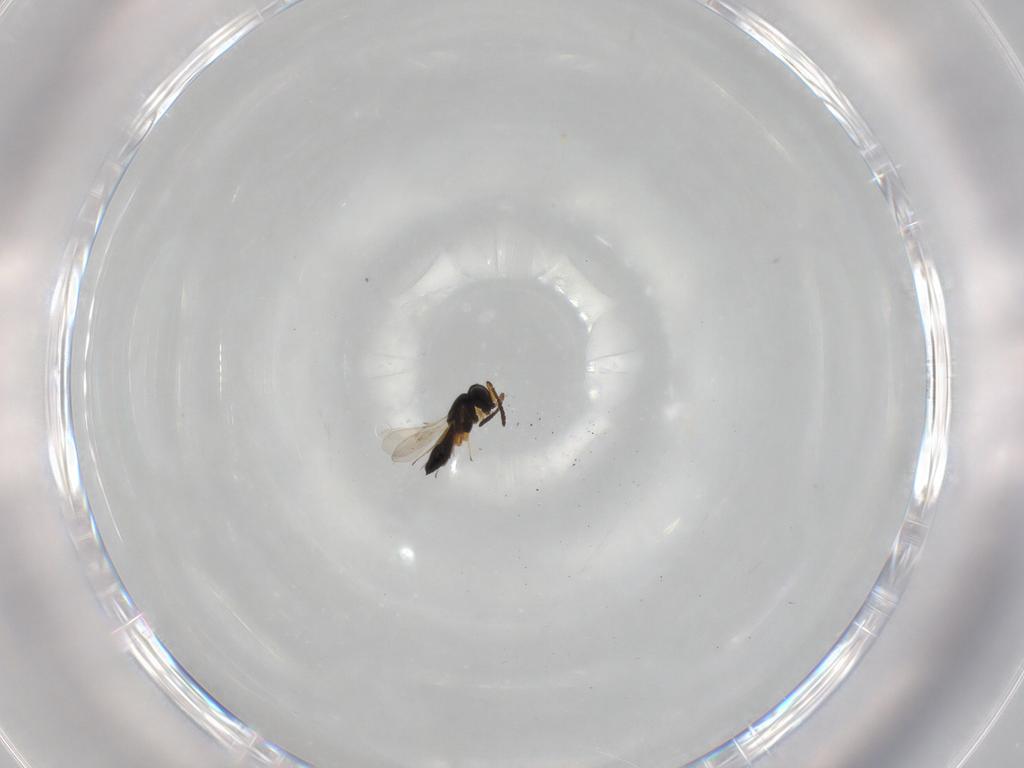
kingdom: Animalia
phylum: Arthropoda
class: Insecta
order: Hymenoptera
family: Scelionidae
